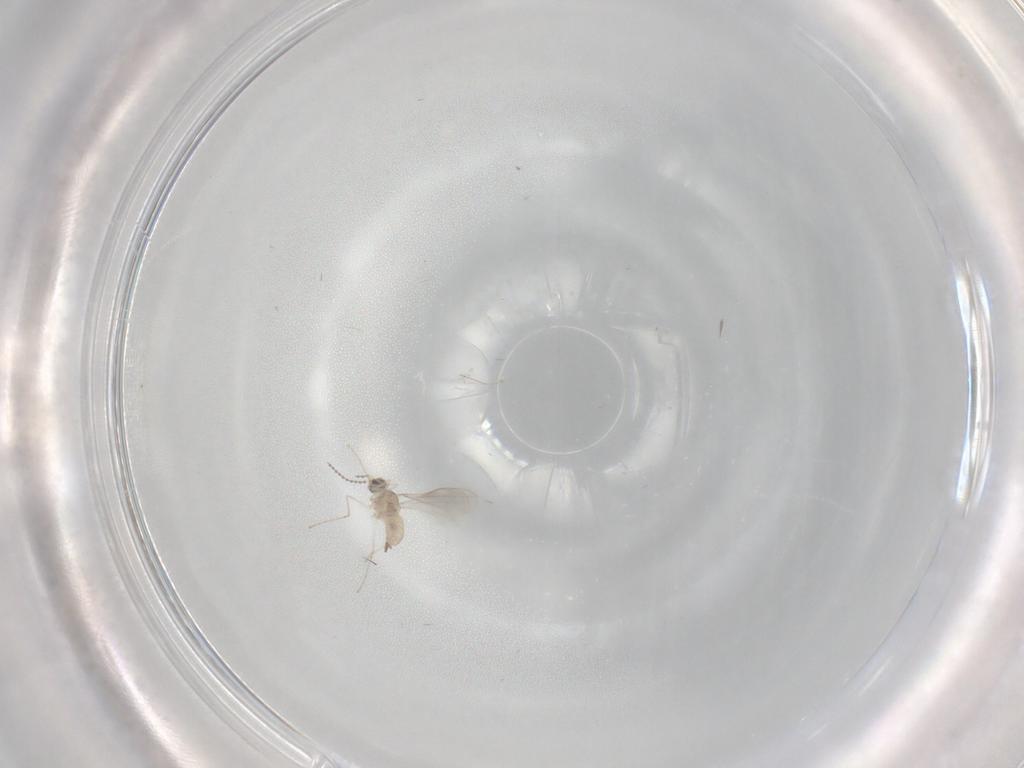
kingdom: Animalia
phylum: Arthropoda
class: Insecta
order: Diptera
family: Cecidomyiidae
